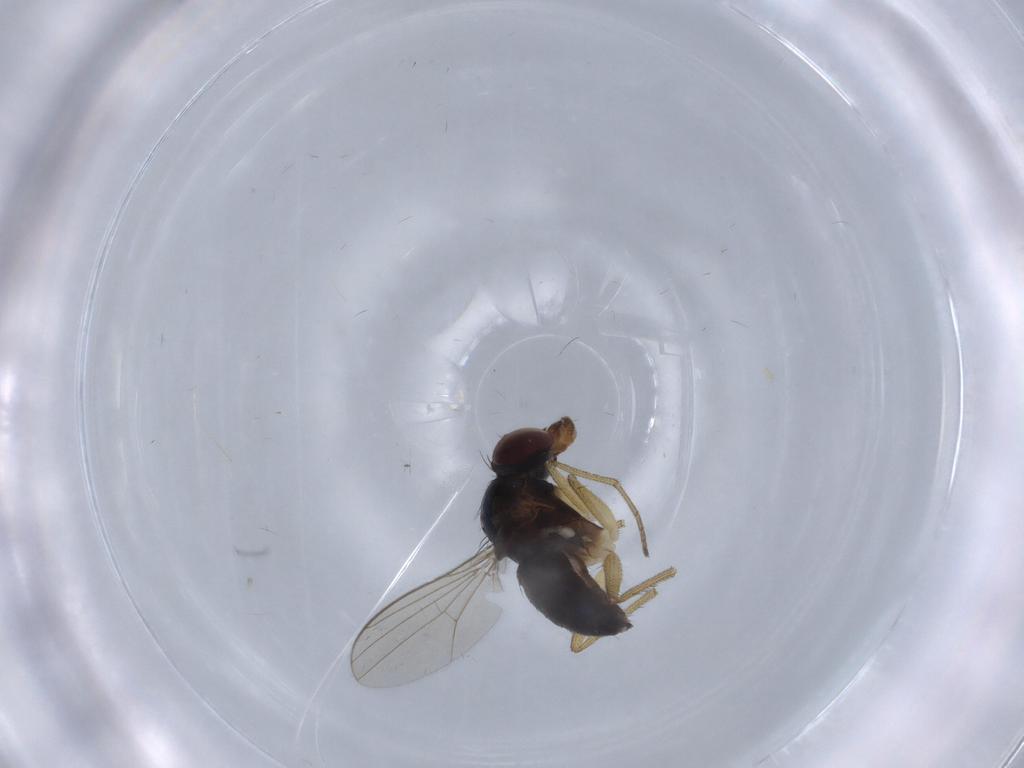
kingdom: Animalia
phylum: Arthropoda
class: Insecta
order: Diptera
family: Dolichopodidae
